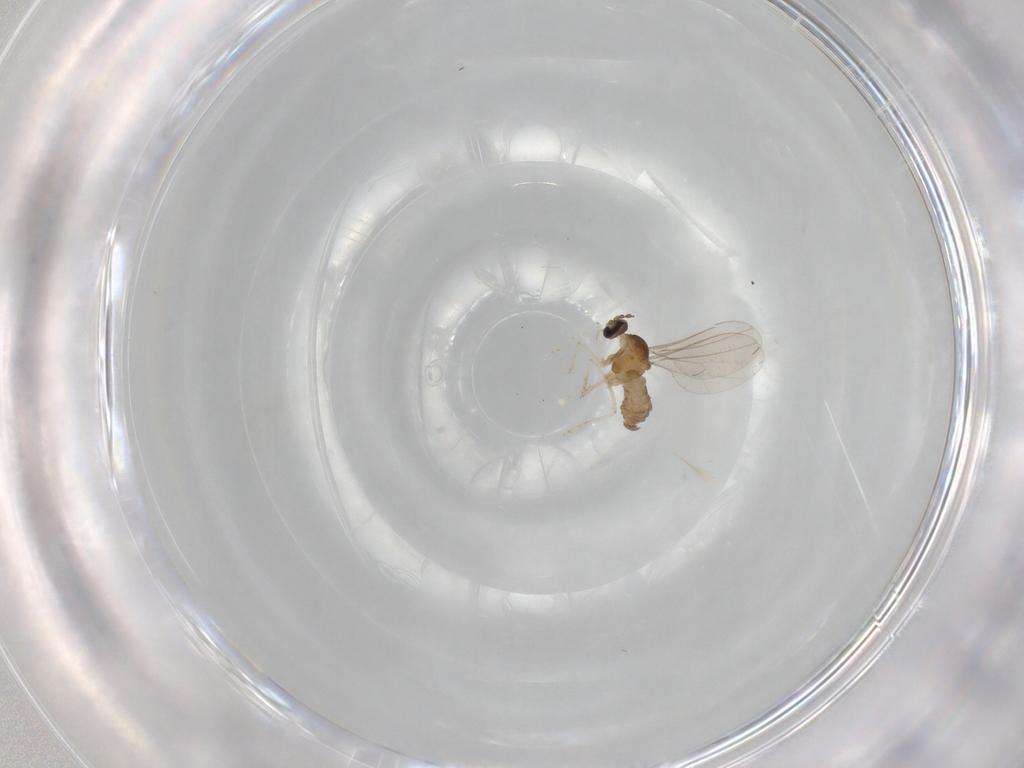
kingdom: Animalia
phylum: Arthropoda
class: Insecta
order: Diptera
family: Cecidomyiidae
